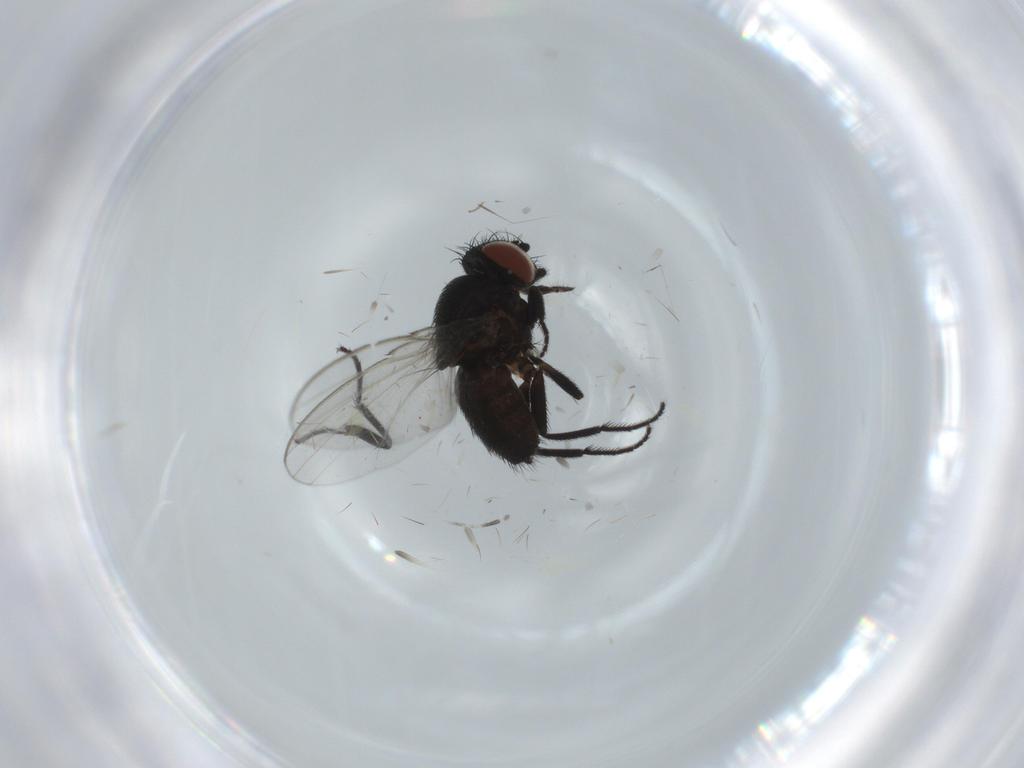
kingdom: Animalia
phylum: Arthropoda
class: Insecta
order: Diptera
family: Milichiidae
